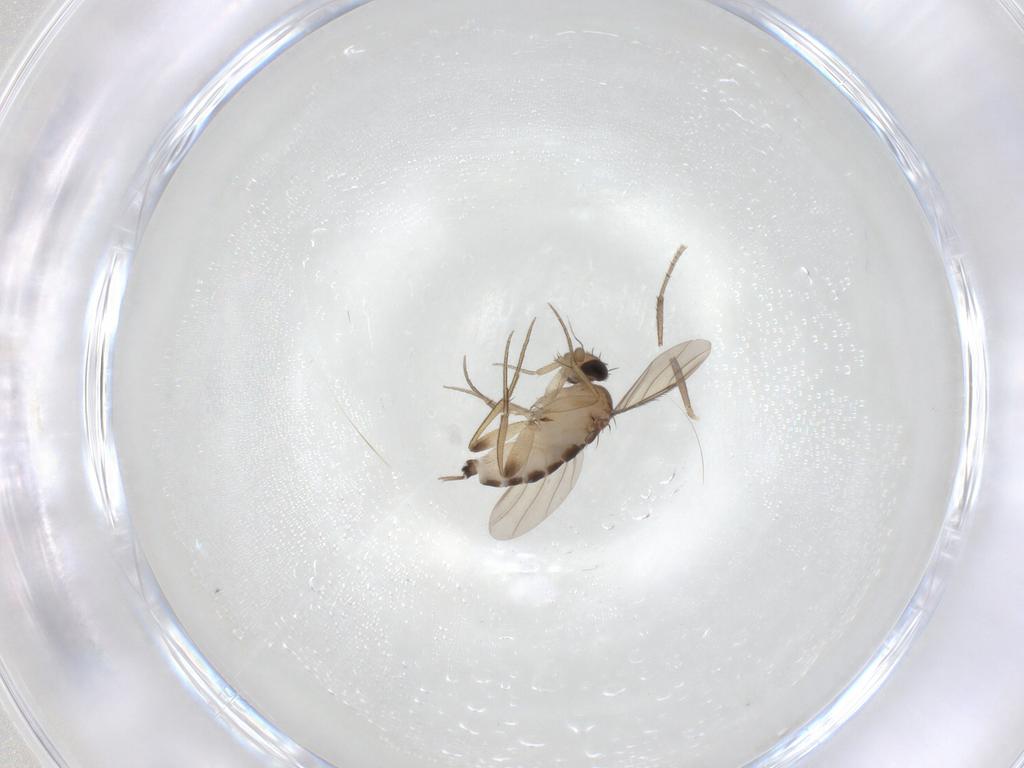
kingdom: Animalia
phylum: Arthropoda
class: Insecta
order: Diptera
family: Phoridae
